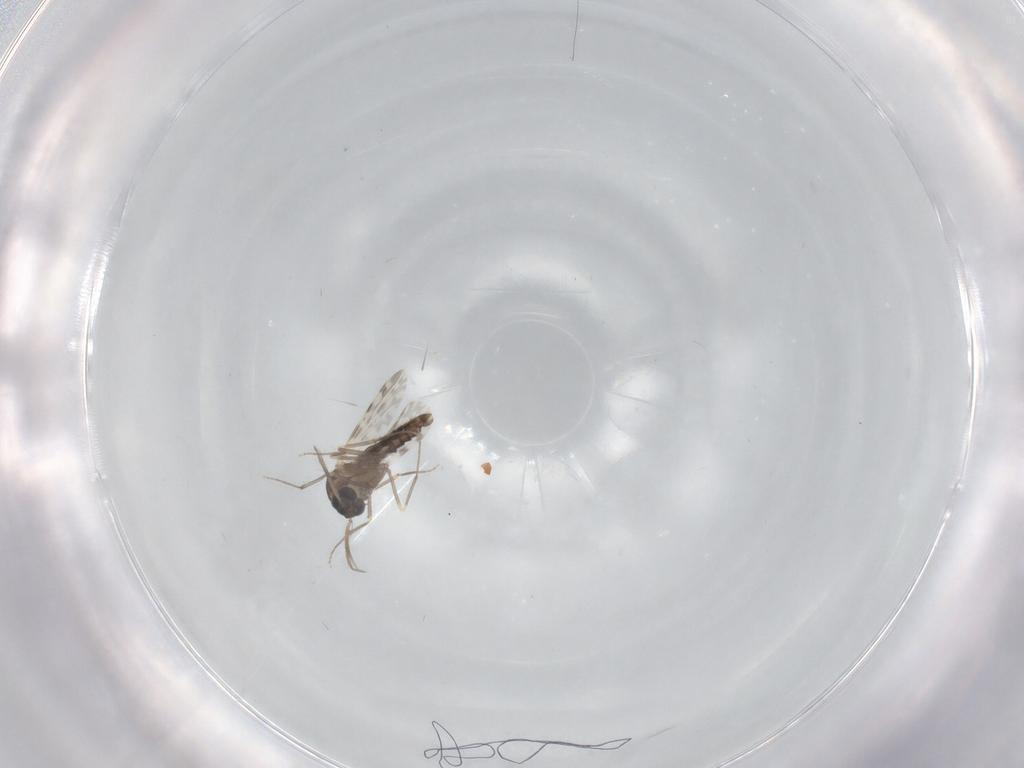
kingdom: Animalia
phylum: Arthropoda
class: Insecta
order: Diptera
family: Ceratopogonidae
